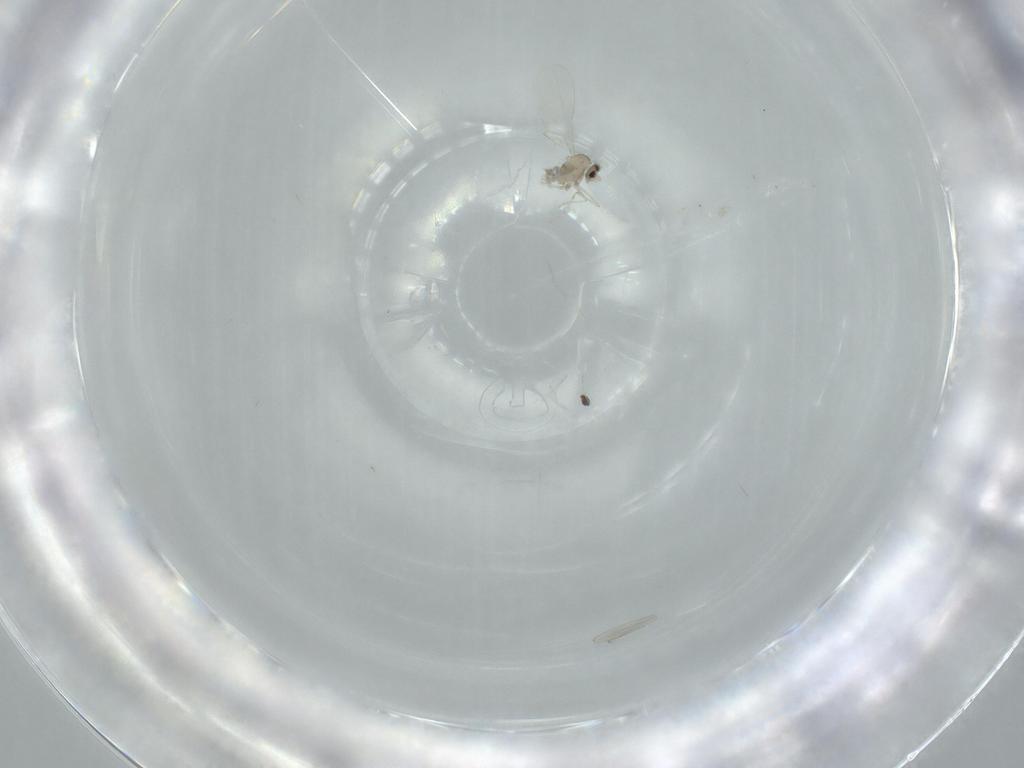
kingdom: Animalia
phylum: Arthropoda
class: Insecta
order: Diptera
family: Cecidomyiidae
